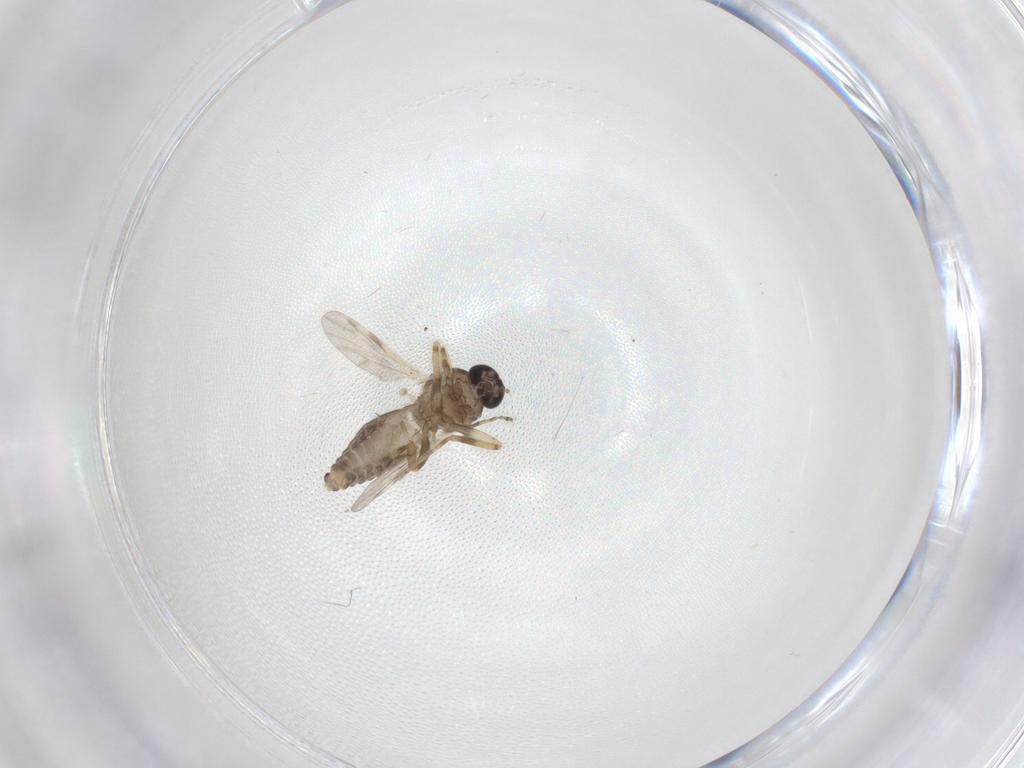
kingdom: Animalia
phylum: Arthropoda
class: Insecta
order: Diptera
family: Ceratopogonidae
